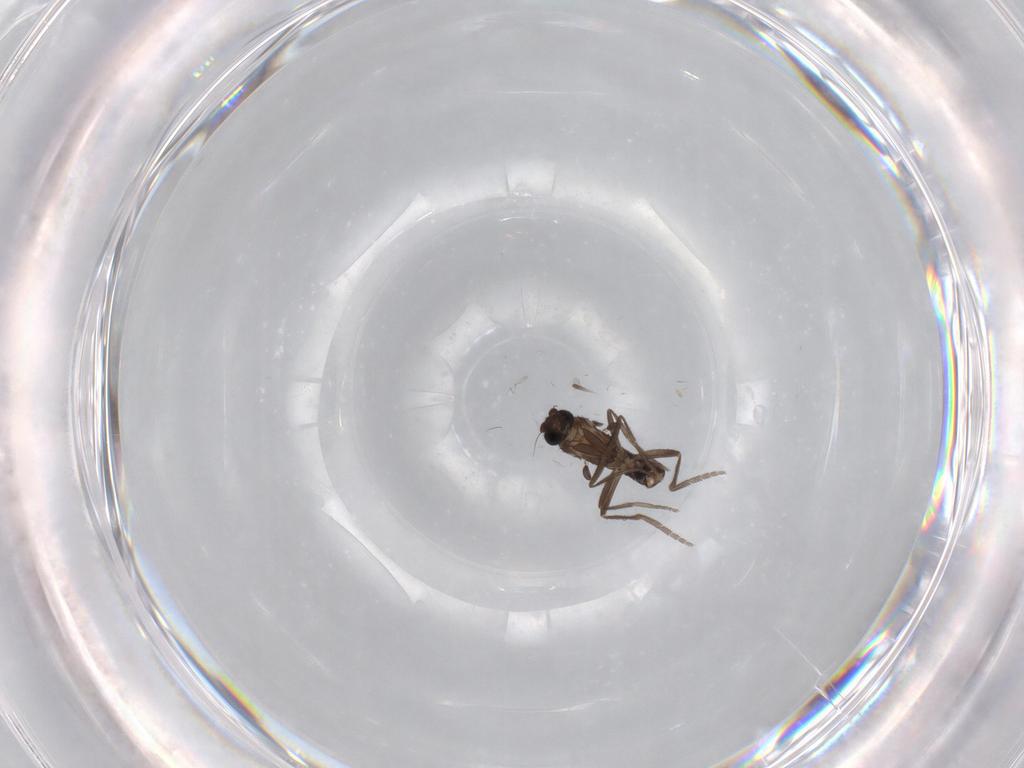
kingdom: Animalia
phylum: Arthropoda
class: Insecta
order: Diptera
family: Phoridae
